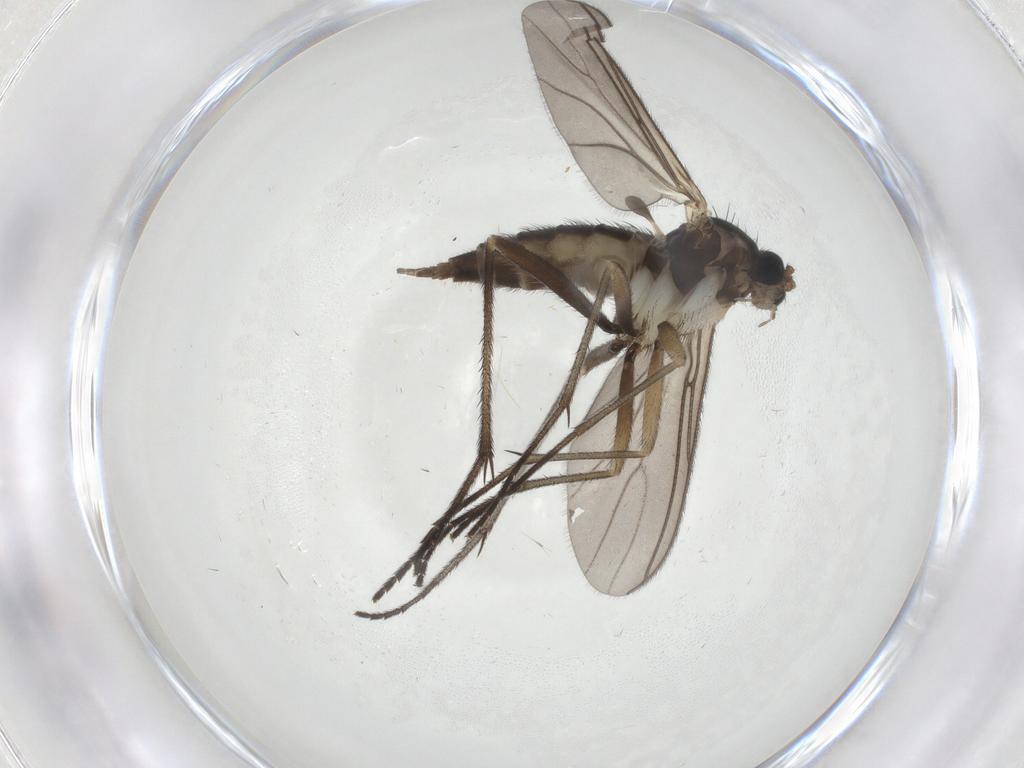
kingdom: Animalia
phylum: Arthropoda
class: Insecta
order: Diptera
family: Sciaridae
